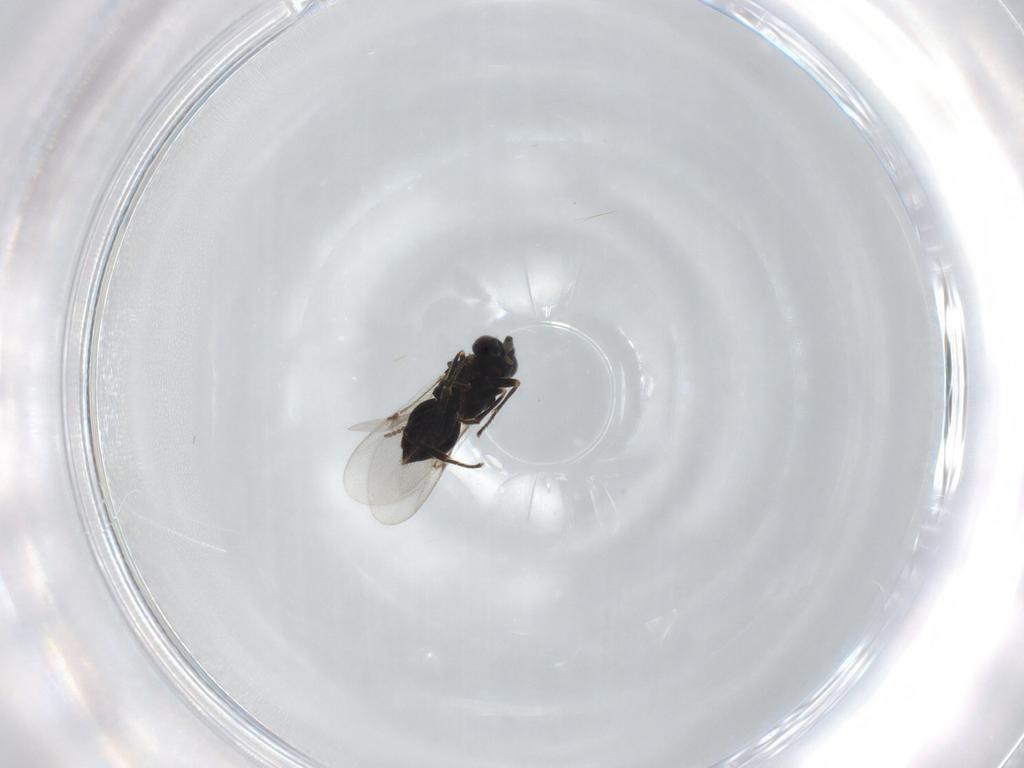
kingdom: Animalia
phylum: Arthropoda
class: Insecta
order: Hymenoptera
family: Encyrtidae
